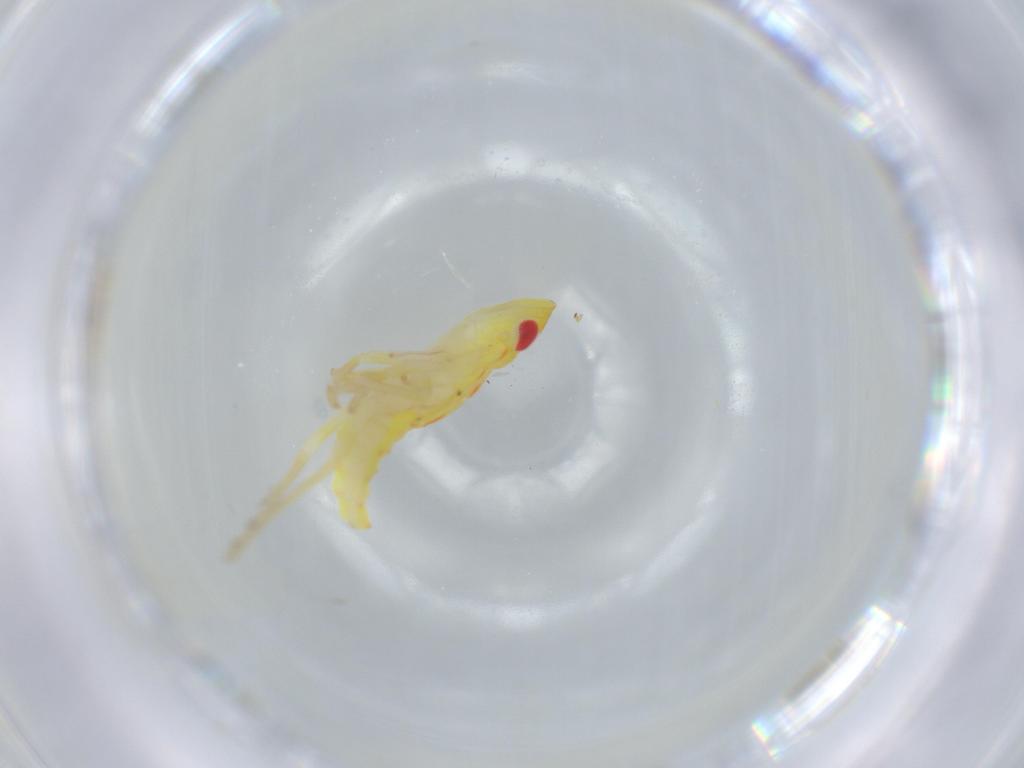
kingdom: Animalia
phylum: Arthropoda
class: Insecta
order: Hemiptera
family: Tropiduchidae
